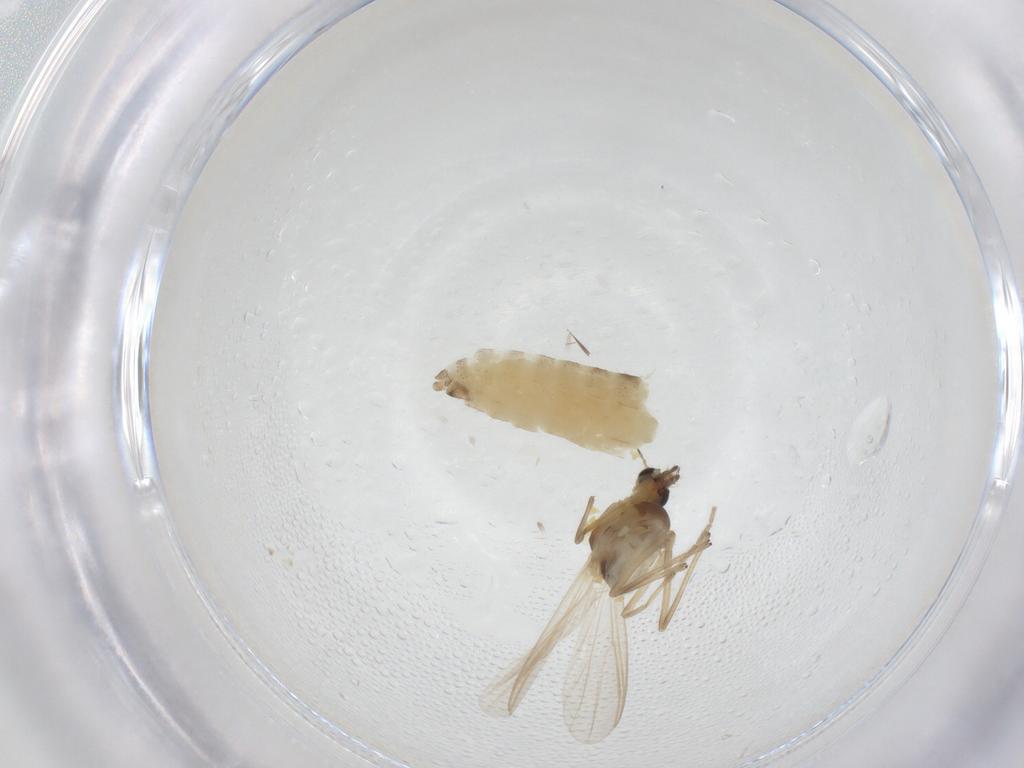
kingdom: Animalia
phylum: Arthropoda
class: Insecta
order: Diptera
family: Chironomidae
